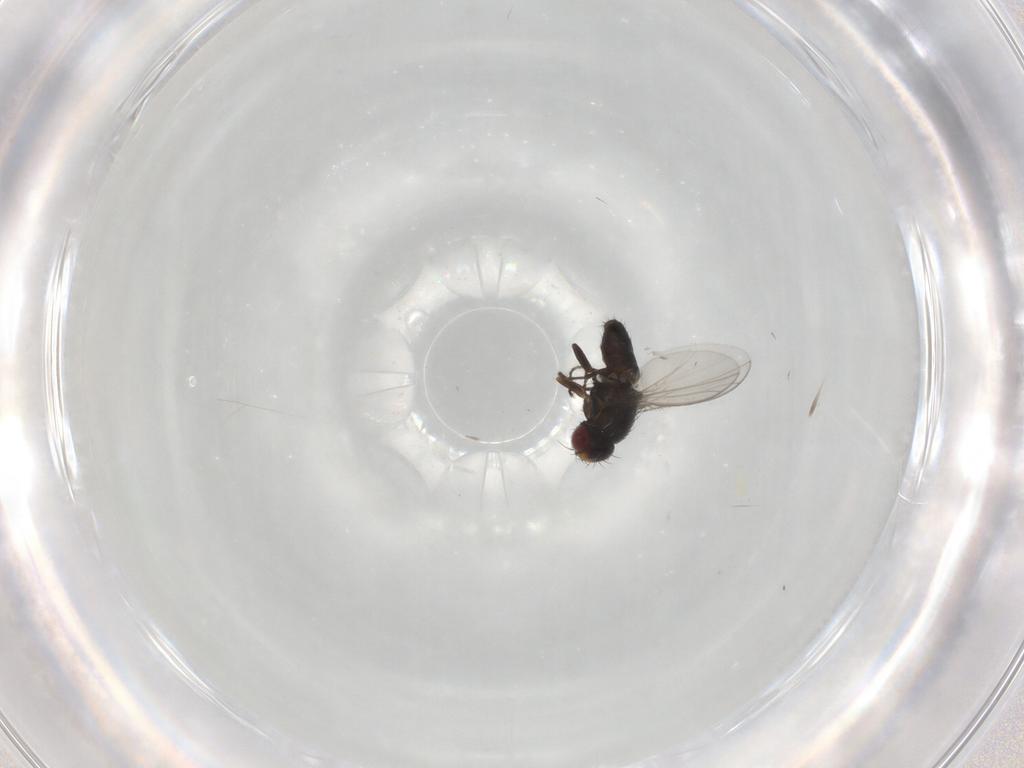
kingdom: Animalia
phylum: Arthropoda
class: Insecta
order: Diptera
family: Carnidae
